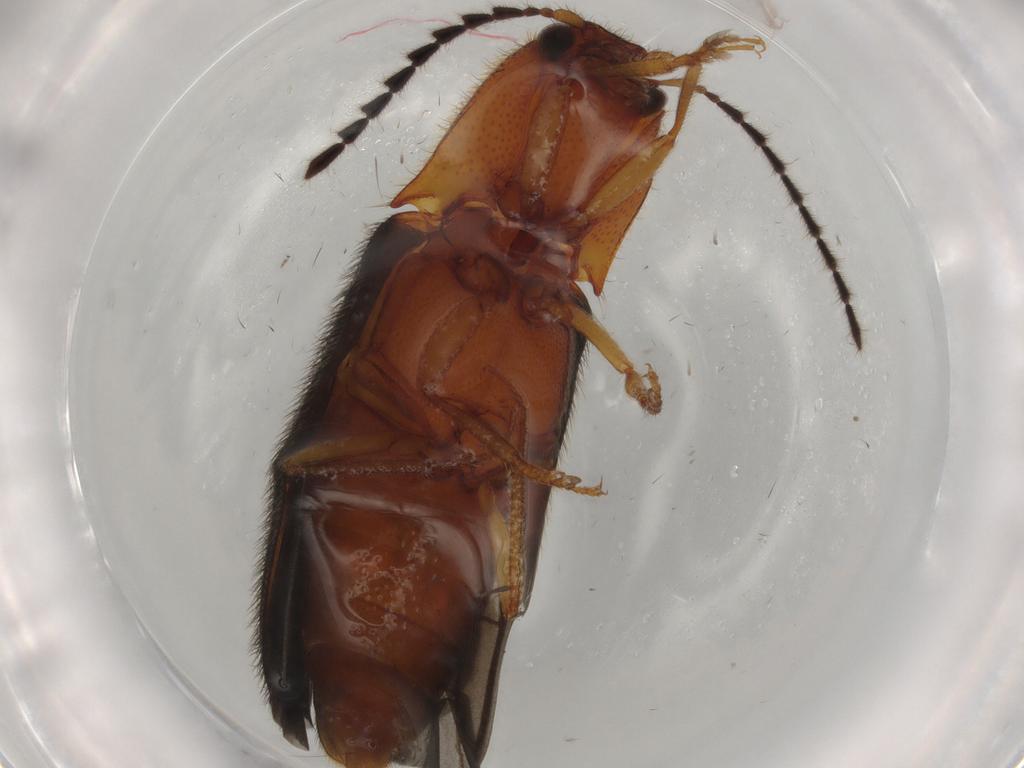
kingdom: Animalia
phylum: Arthropoda
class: Insecta
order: Coleoptera
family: Elateridae
